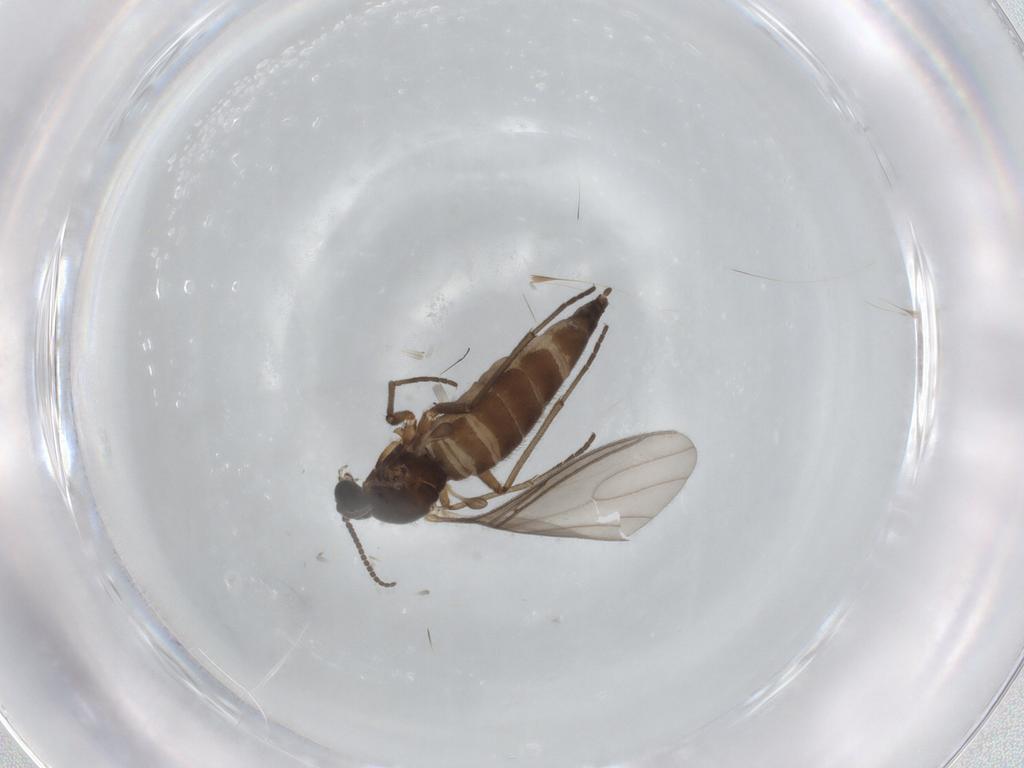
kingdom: Animalia
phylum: Arthropoda
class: Insecta
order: Diptera
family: Sciaridae
